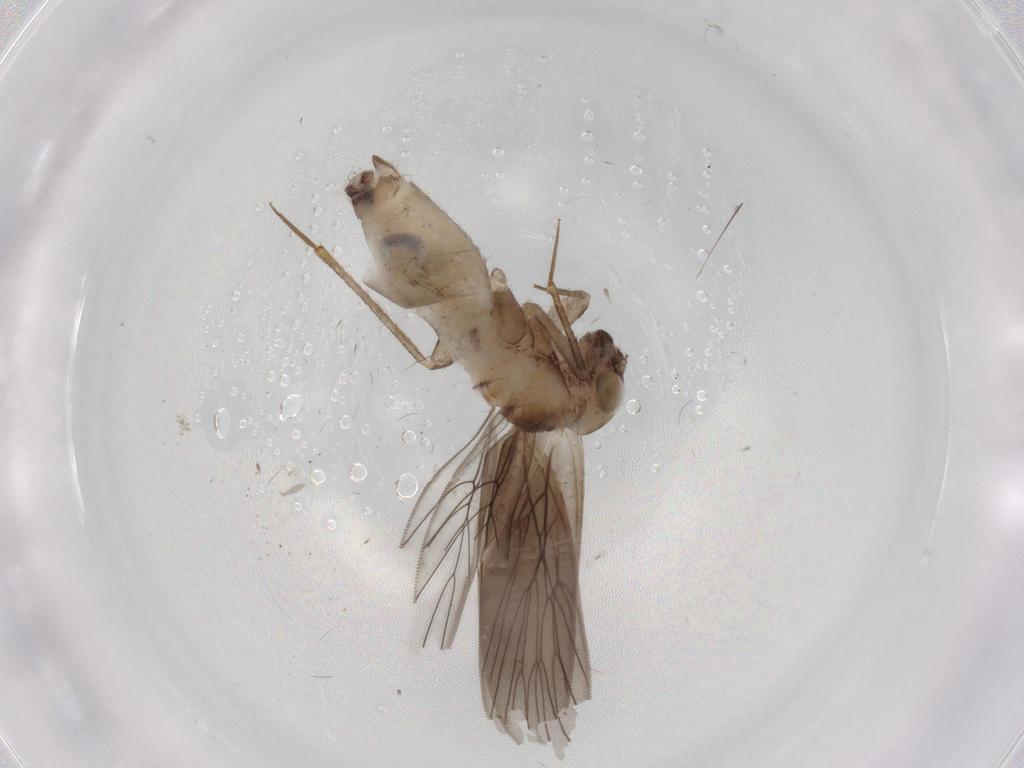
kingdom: Animalia
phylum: Arthropoda
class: Insecta
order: Psocodea
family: Lepidopsocidae
